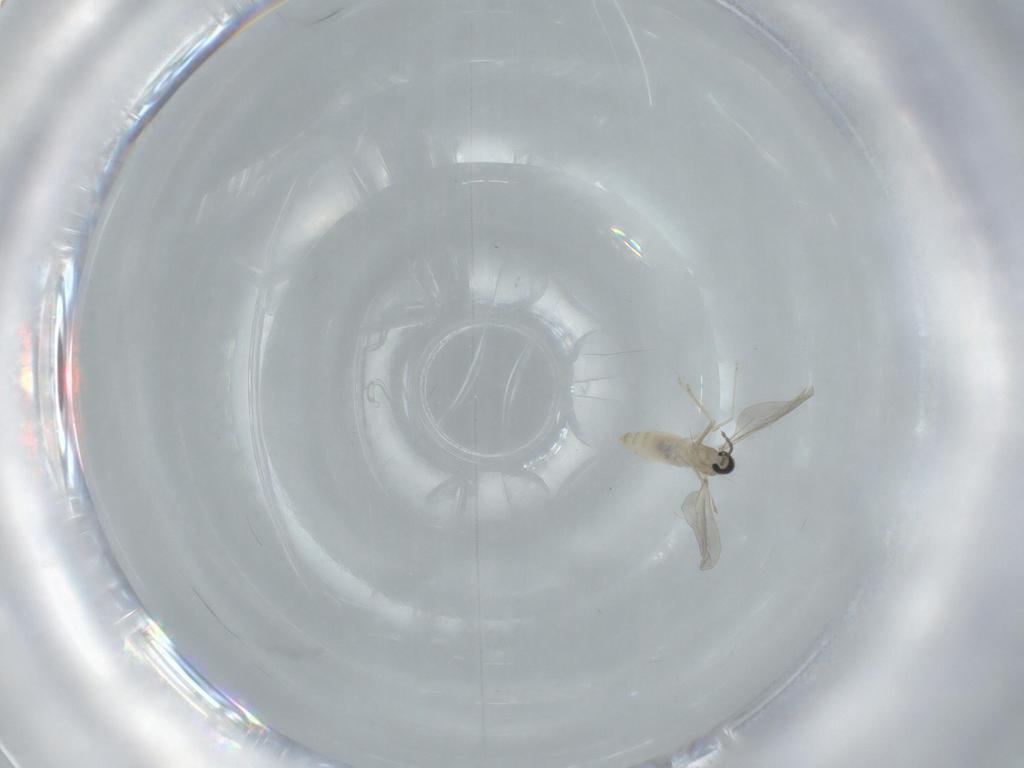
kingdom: Animalia
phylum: Arthropoda
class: Insecta
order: Diptera
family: Cecidomyiidae
